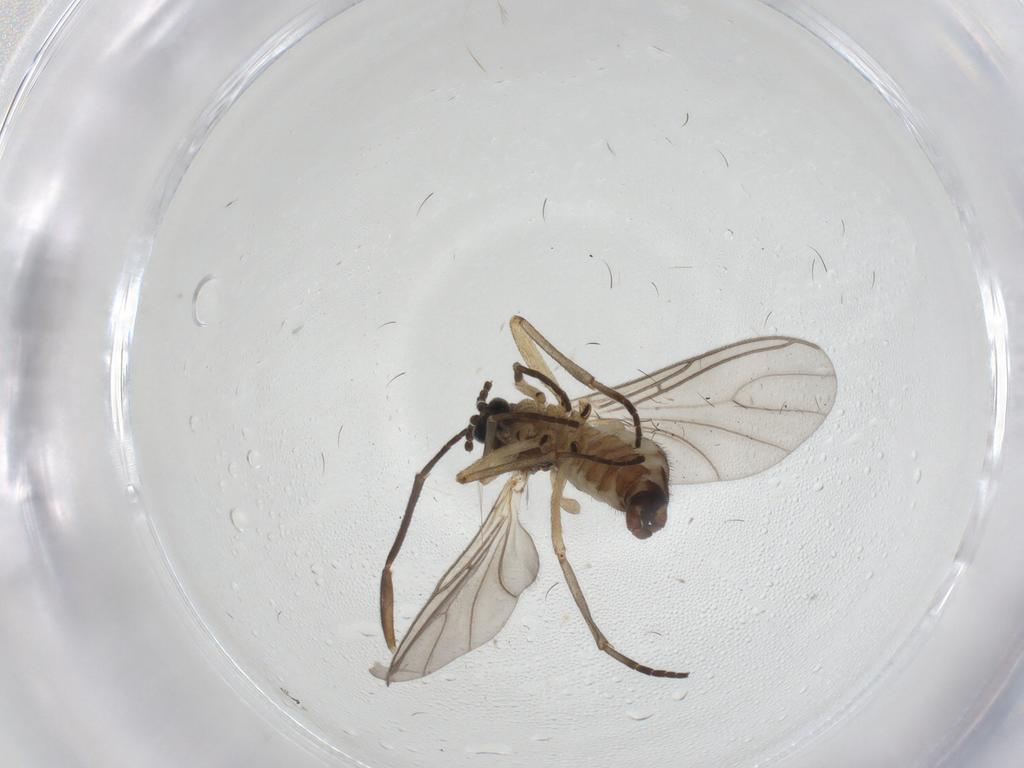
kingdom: Animalia
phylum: Arthropoda
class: Insecta
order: Diptera
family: Sciaridae
